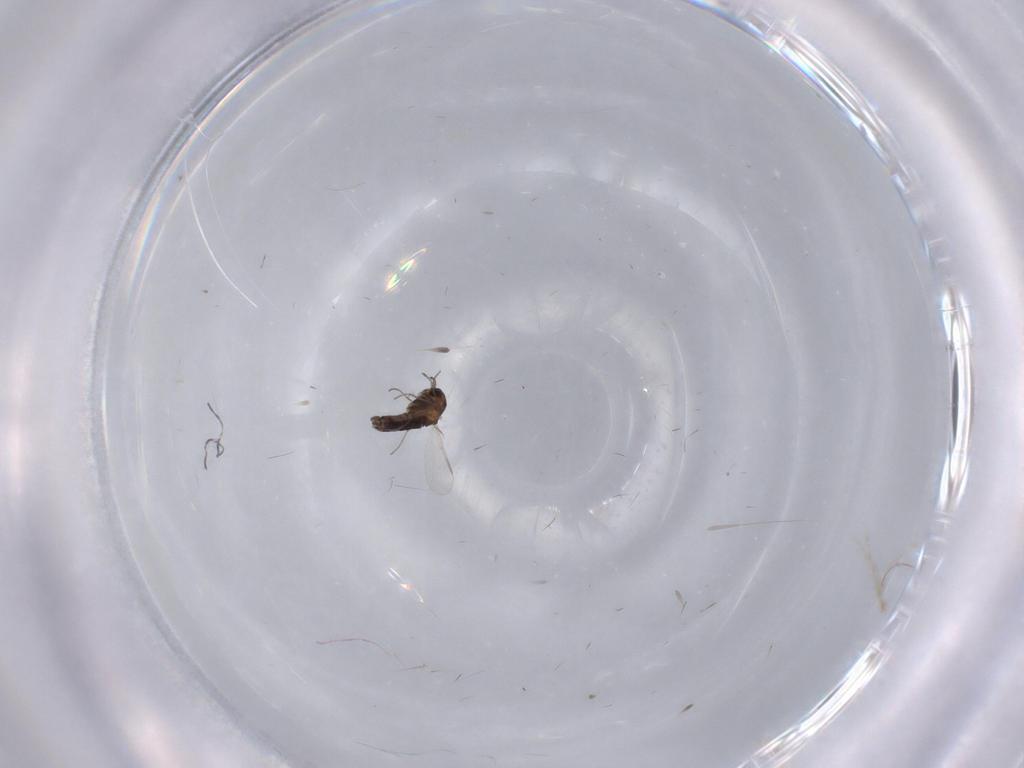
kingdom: Animalia
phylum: Arthropoda
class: Insecta
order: Diptera
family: Chironomidae
